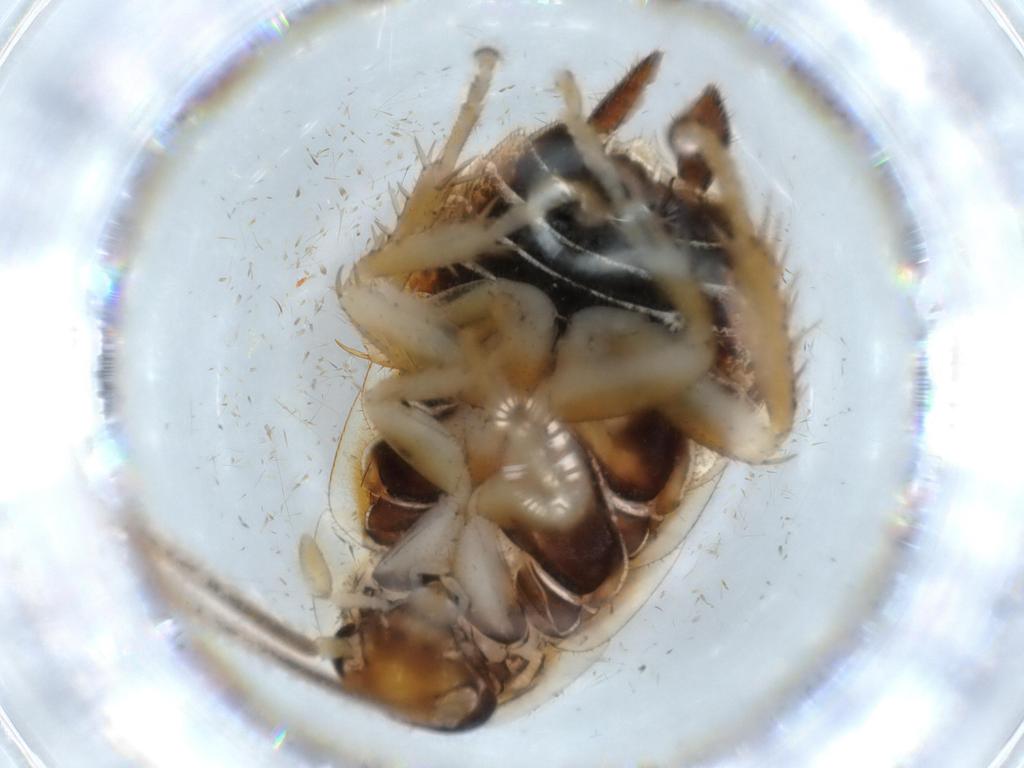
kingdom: Animalia
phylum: Arthropoda
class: Insecta
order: Blattodea
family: Ectobiidae
